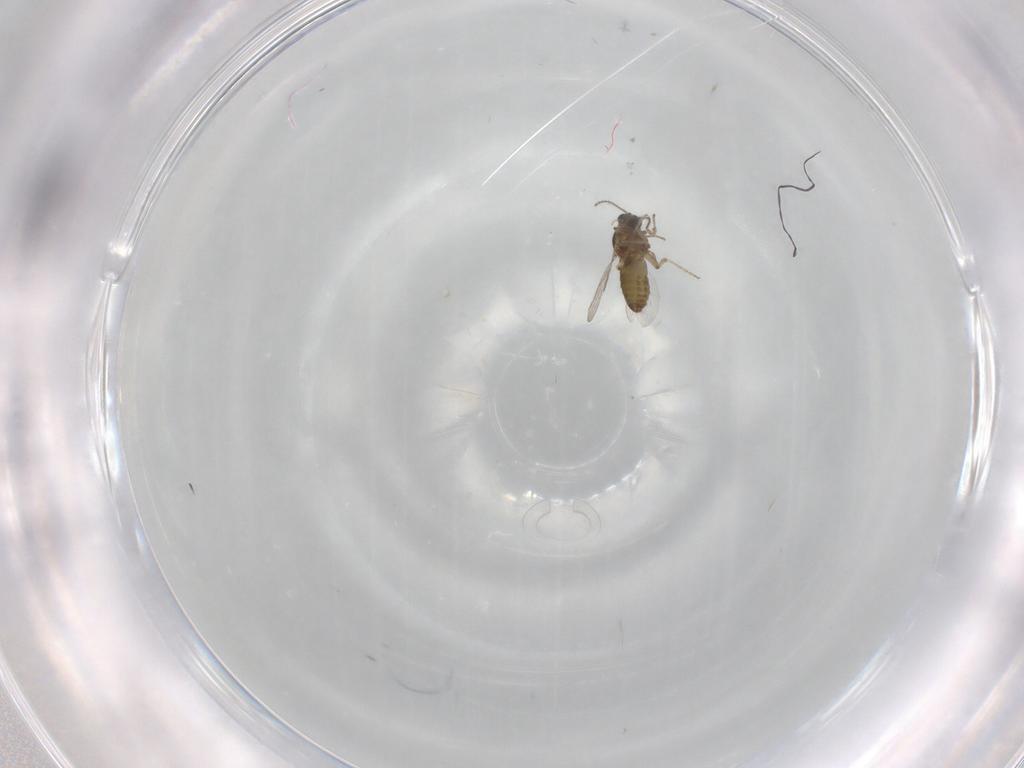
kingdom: Animalia
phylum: Arthropoda
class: Insecta
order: Diptera
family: Ceratopogonidae
